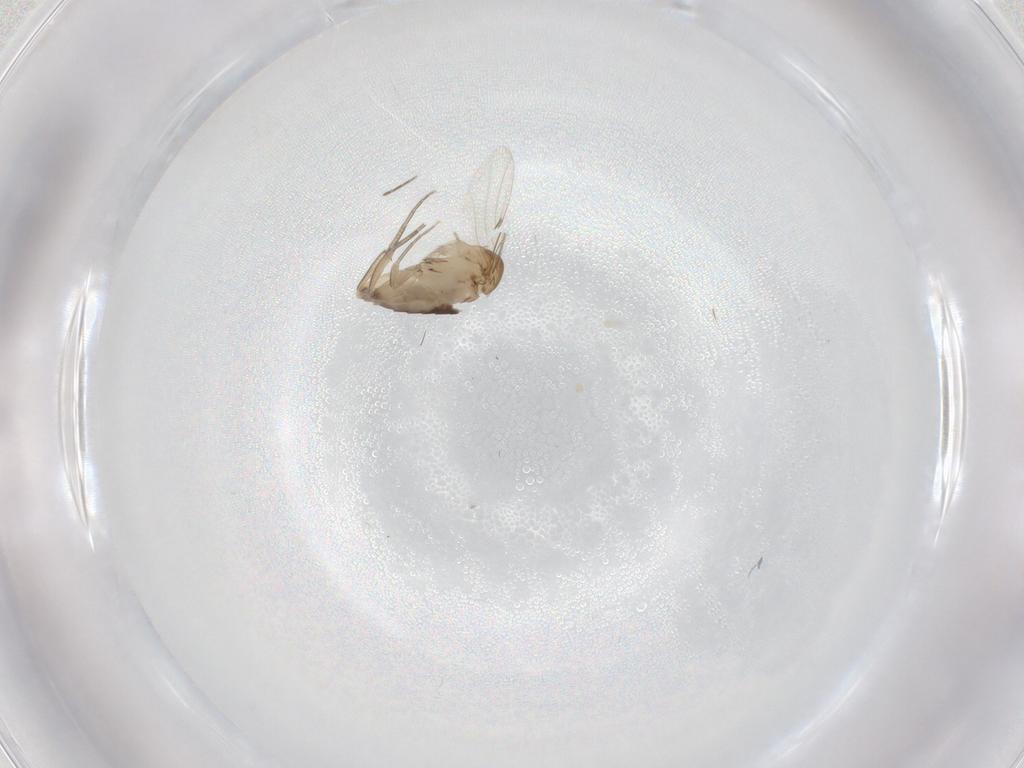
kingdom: Animalia
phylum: Arthropoda
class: Insecta
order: Diptera
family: Phoridae
